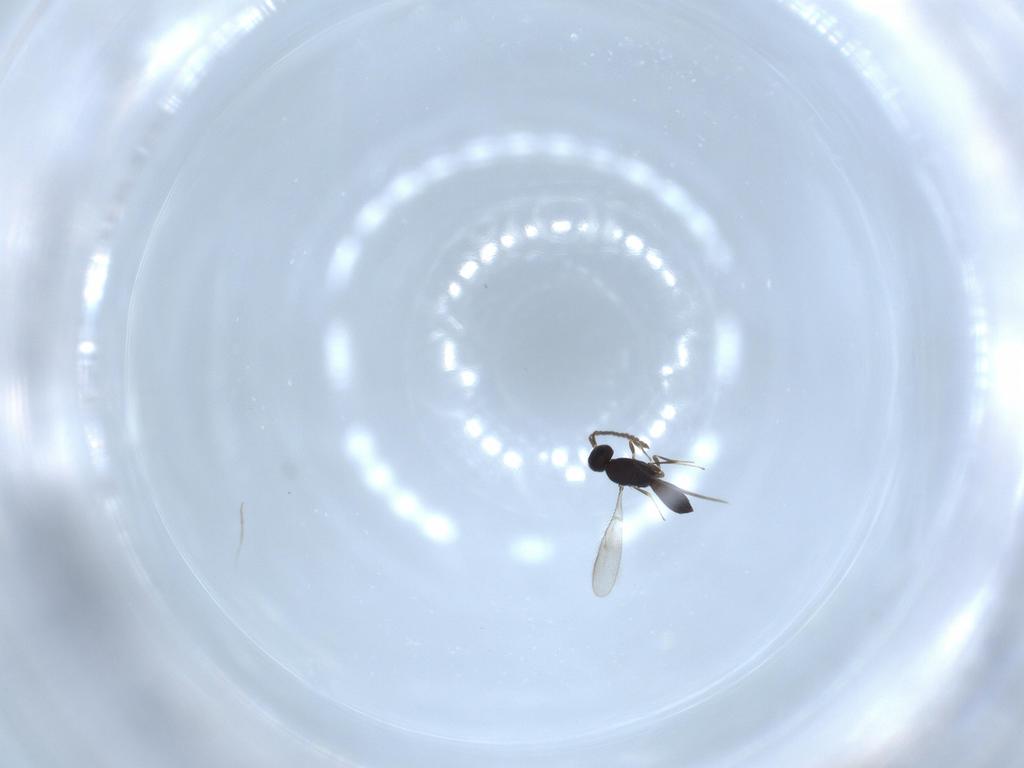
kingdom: Animalia
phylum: Arthropoda
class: Insecta
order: Hymenoptera
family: Scelionidae
